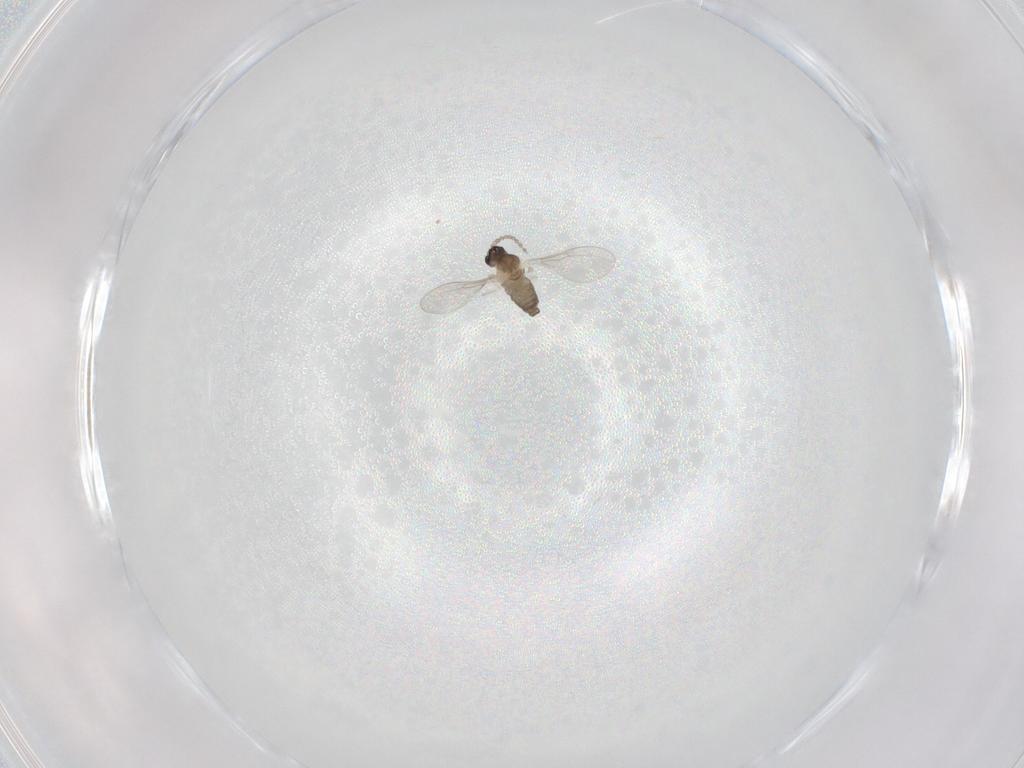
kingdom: Animalia
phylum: Arthropoda
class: Insecta
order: Diptera
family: Cecidomyiidae
